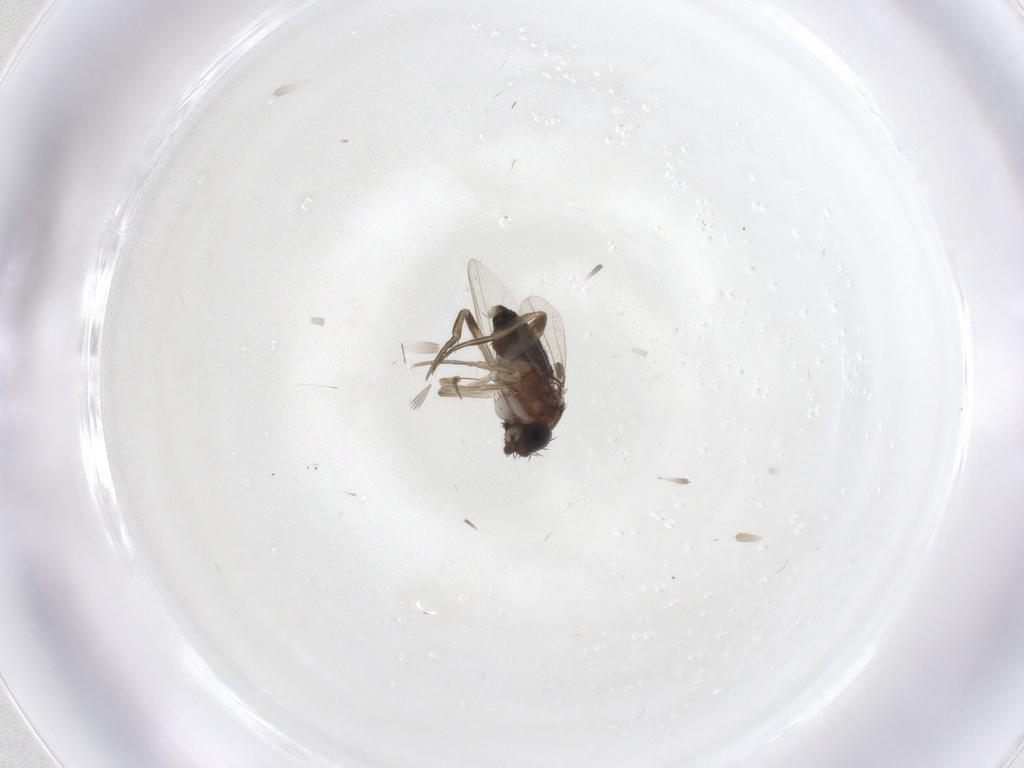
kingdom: Animalia
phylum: Arthropoda
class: Insecta
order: Diptera
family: Phoridae
